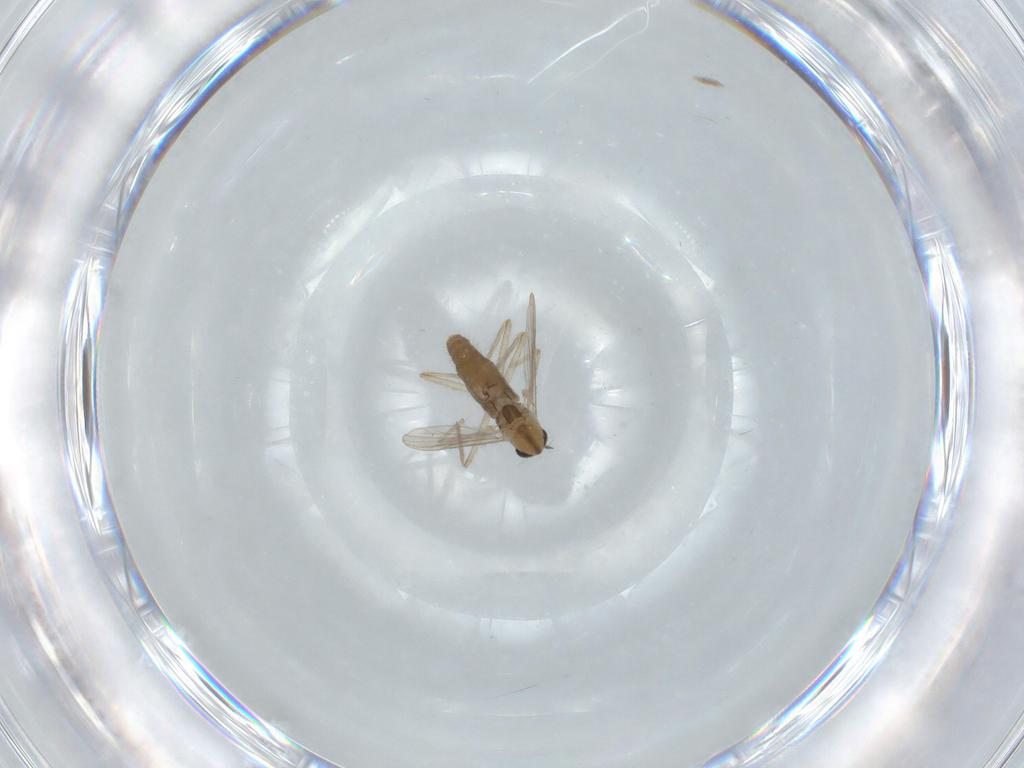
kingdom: Animalia
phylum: Arthropoda
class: Insecta
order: Diptera
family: Chironomidae
